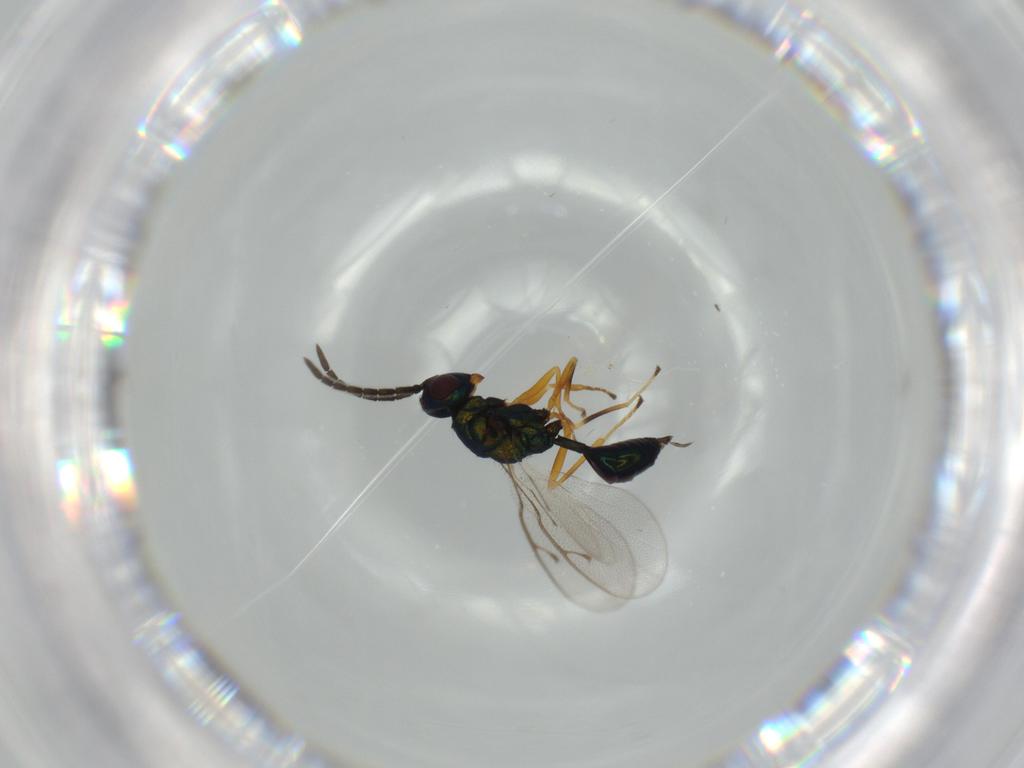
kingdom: Animalia
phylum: Arthropoda
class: Insecta
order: Hymenoptera
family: Pteromalidae
